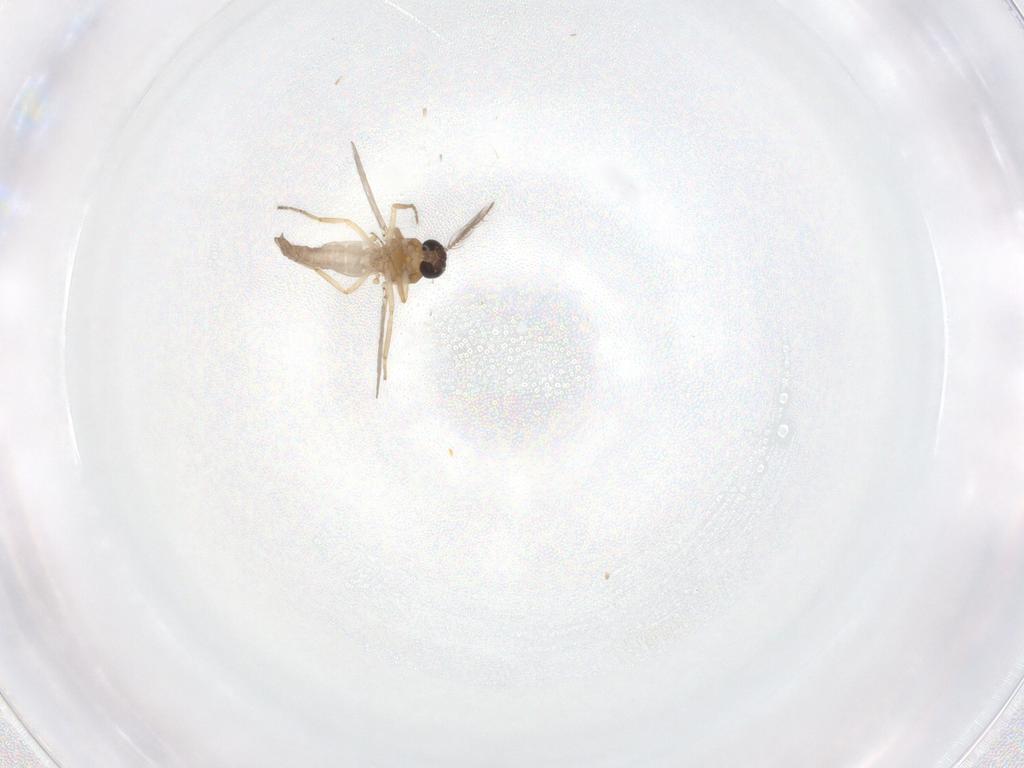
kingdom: Animalia
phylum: Arthropoda
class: Insecta
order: Diptera
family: Ceratopogonidae
